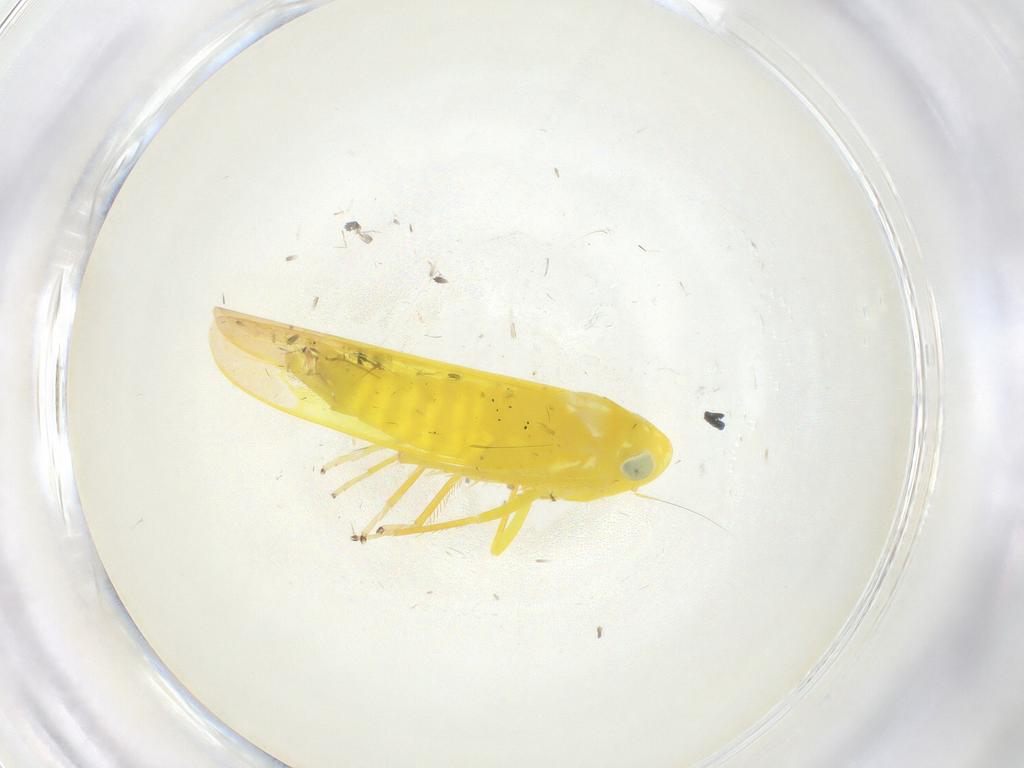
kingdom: Animalia
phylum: Arthropoda
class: Insecta
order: Hemiptera
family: Cicadellidae
